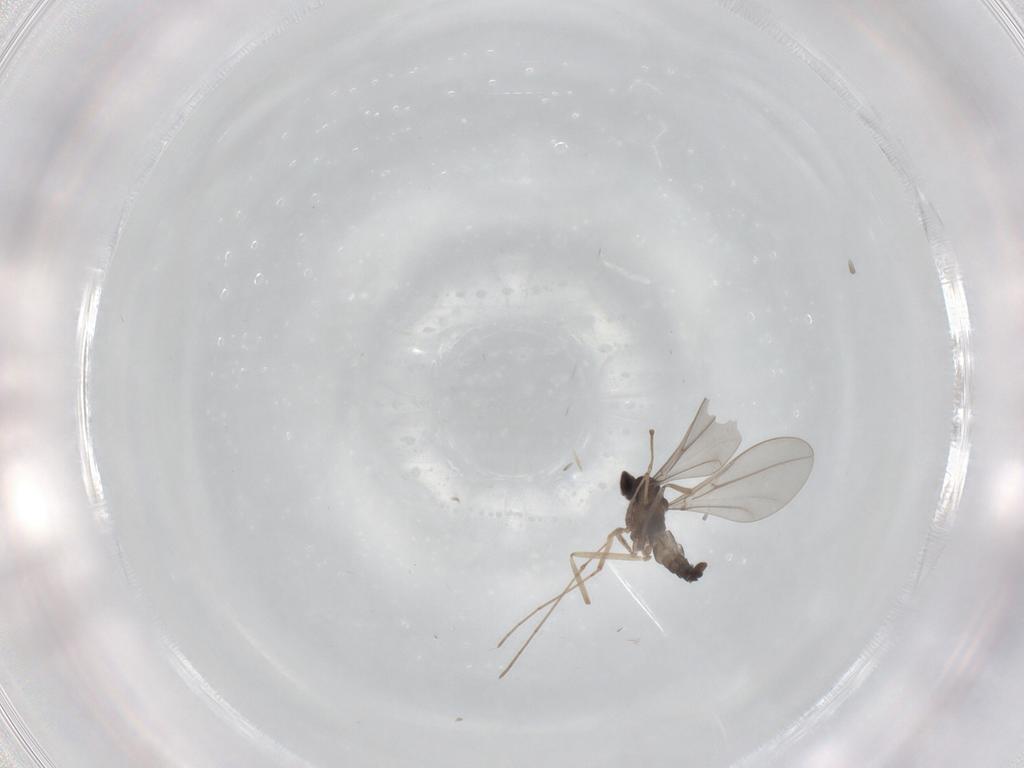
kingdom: Animalia
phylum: Arthropoda
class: Insecta
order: Diptera
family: Cecidomyiidae
